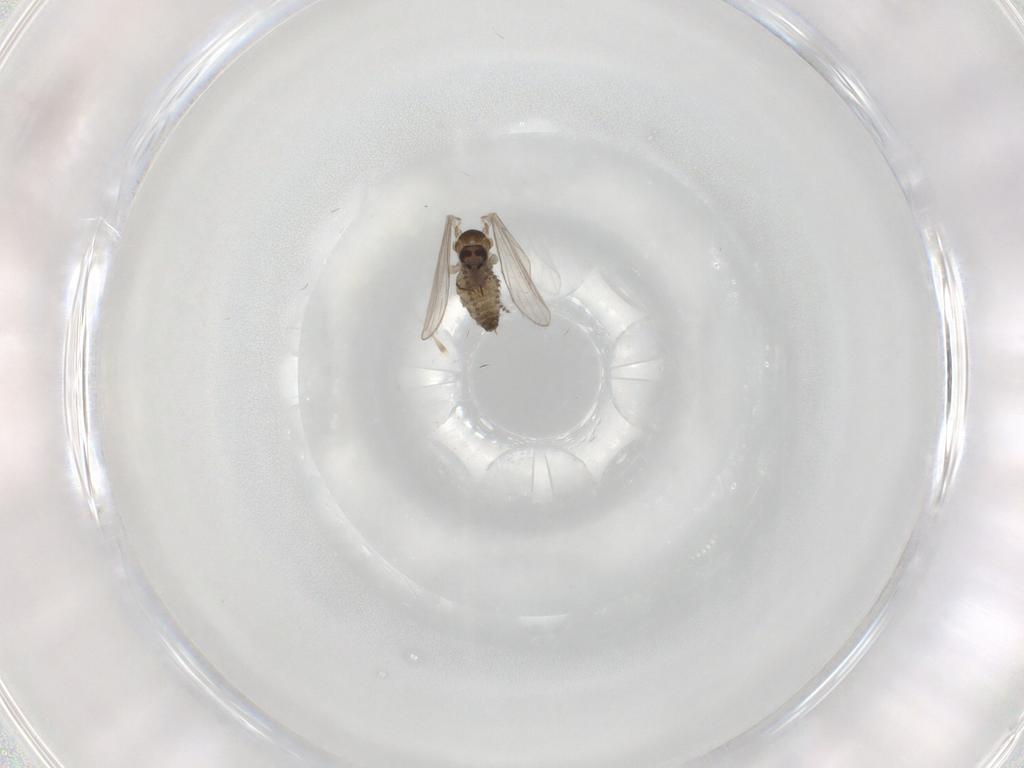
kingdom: Animalia
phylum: Arthropoda
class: Insecta
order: Diptera
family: Psychodidae
